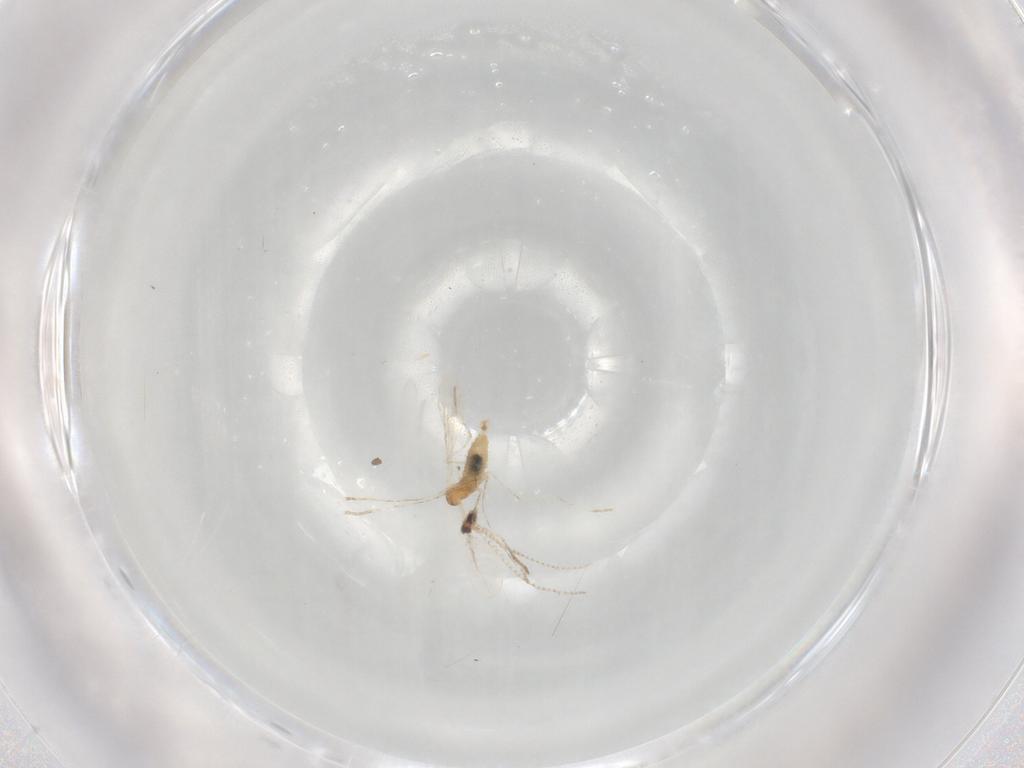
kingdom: Animalia
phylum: Arthropoda
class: Insecta
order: Diptera
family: Cecidomyiidae
